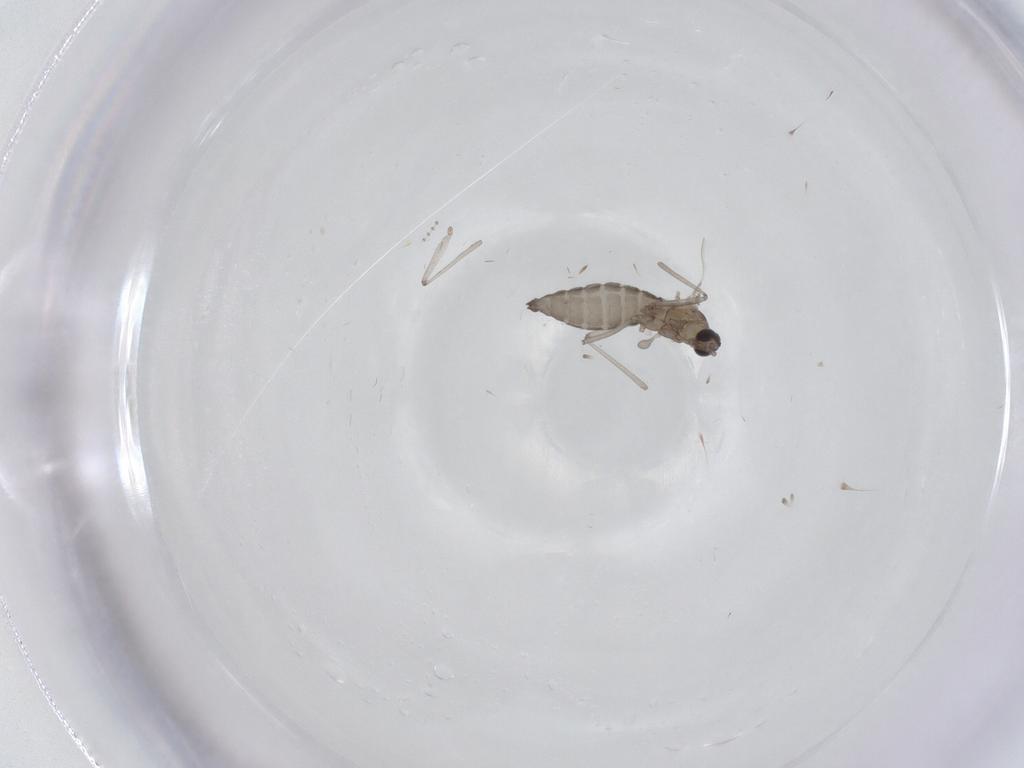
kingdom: Animalia
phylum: Arthropoda
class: Insecta
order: Diptera
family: Cecidomyiidae
